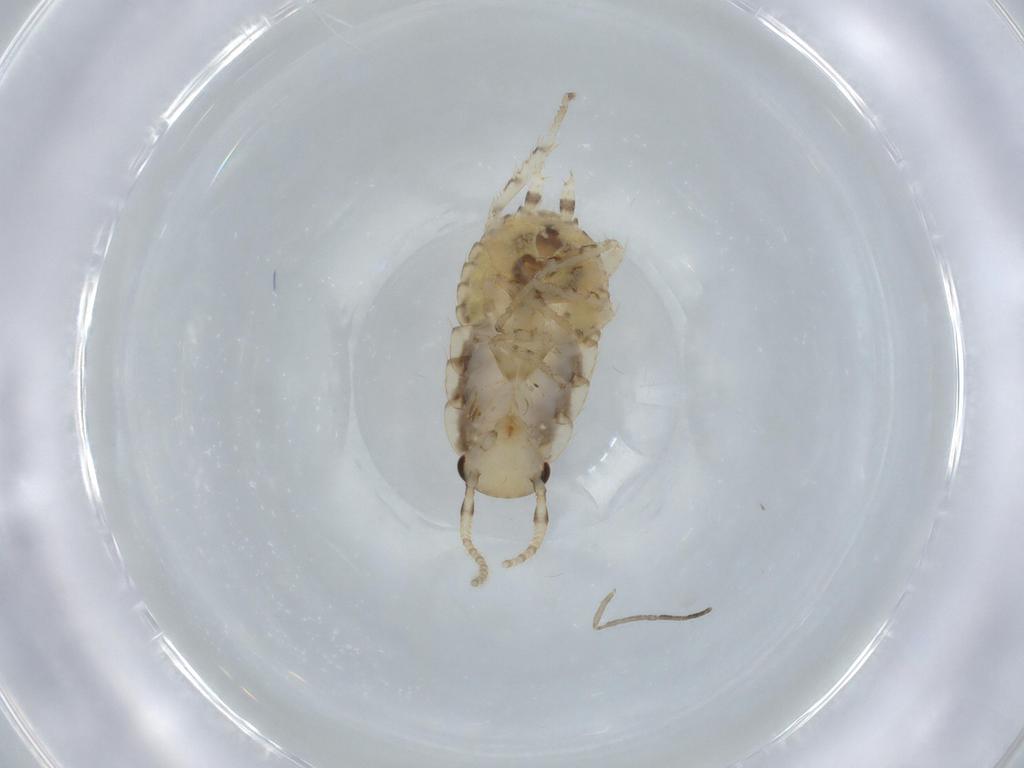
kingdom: Animalia
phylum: Arthropoda
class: Insecta
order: Blattodea
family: Ectobiidae
